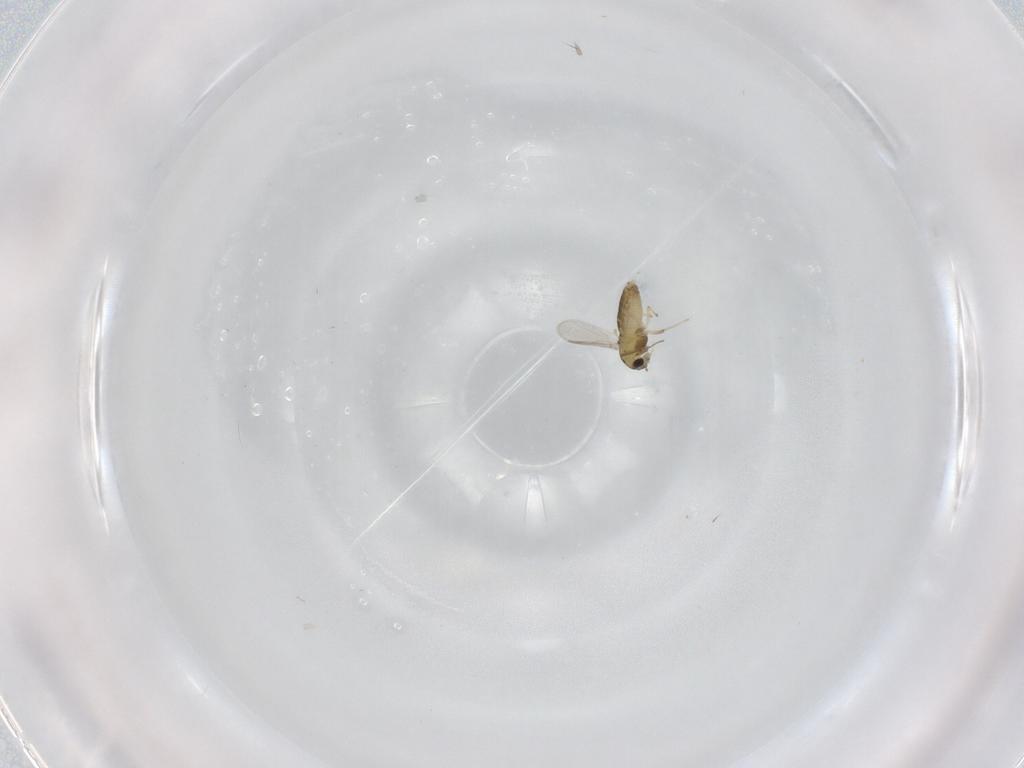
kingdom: Animalia
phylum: Arthropoda
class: Insecta
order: Diptera
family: Chironomidae
